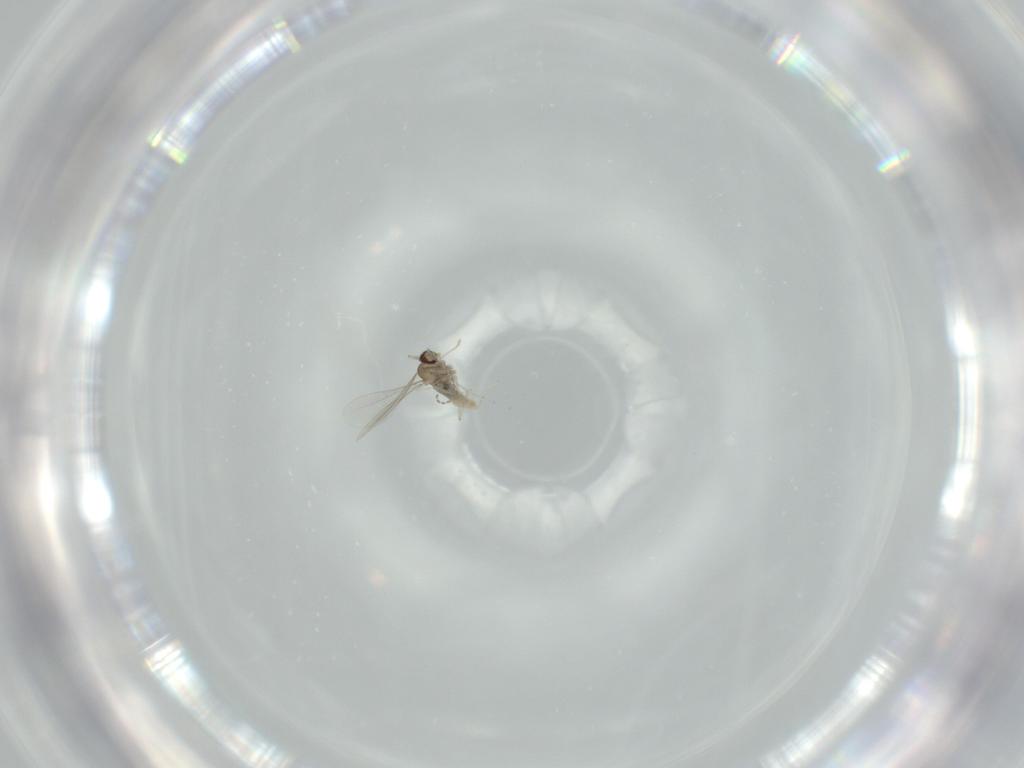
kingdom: Animalia
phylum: Arthropoda
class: Insecta
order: Diptera
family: Cecidomyiidae
